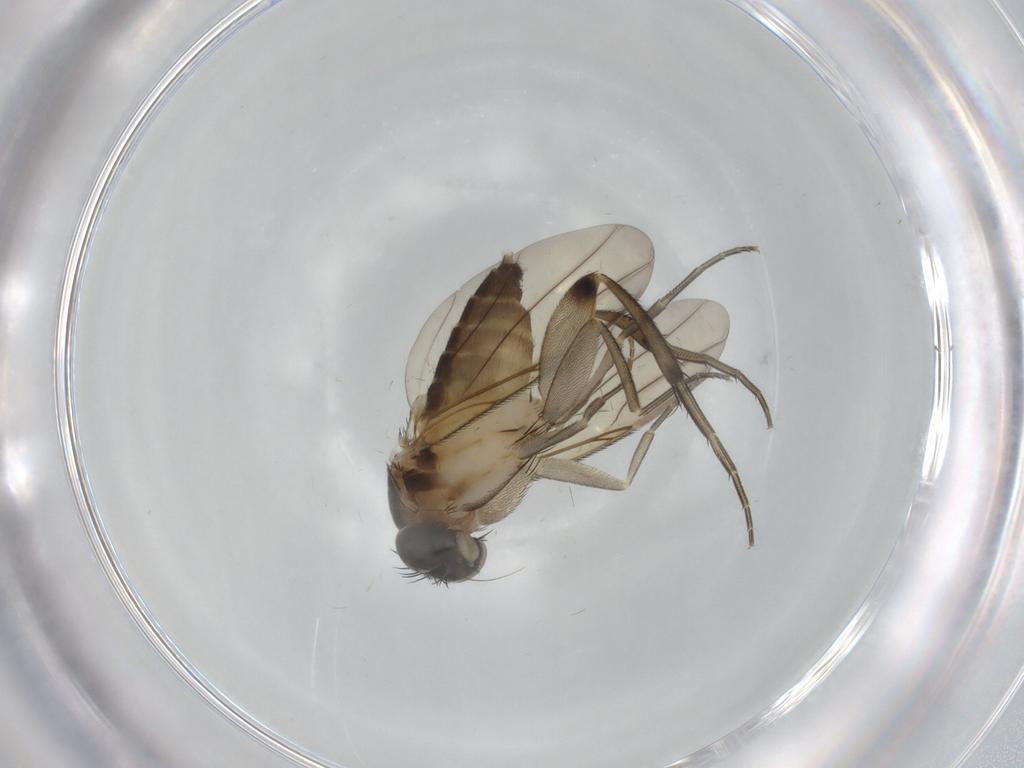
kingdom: Animalia
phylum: Arthropoda
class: Insecta
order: Diptera
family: Phoridae
